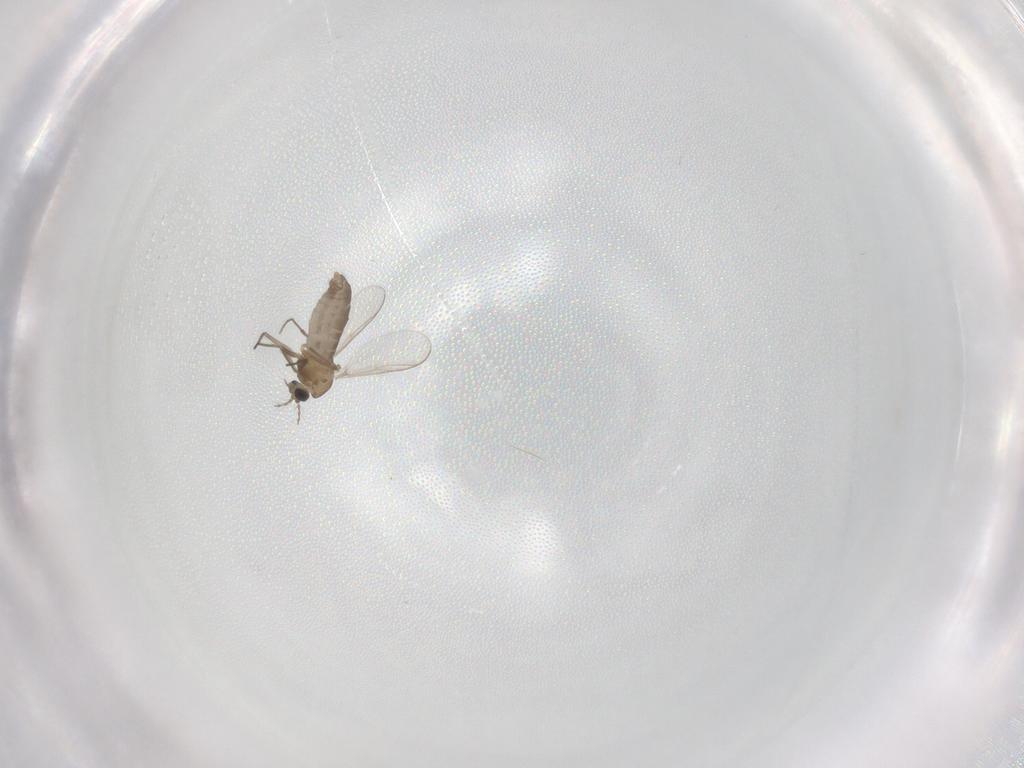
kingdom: Animalia
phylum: Arthropoda
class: Insecta
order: Diptera
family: Chironomidae
